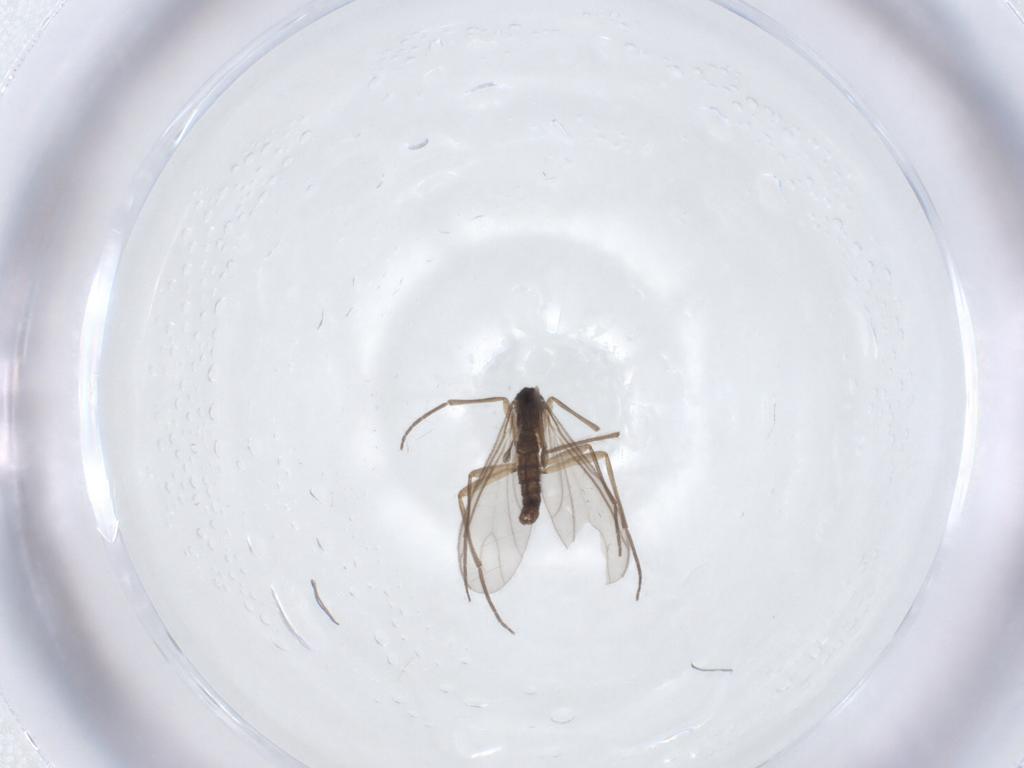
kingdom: Animalia
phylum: Arthropoda
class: Insecta
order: Diptera
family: Sciaridae
